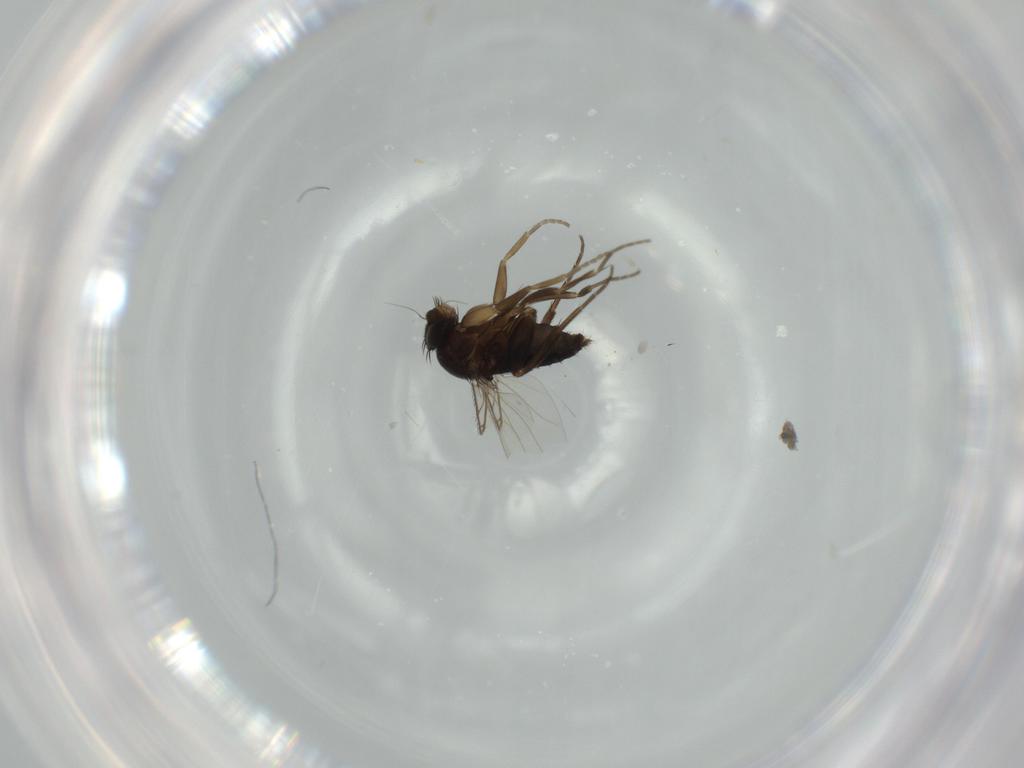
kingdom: Animalia
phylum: Arthropoda
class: Insecta
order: Diptera
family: Phoridae
